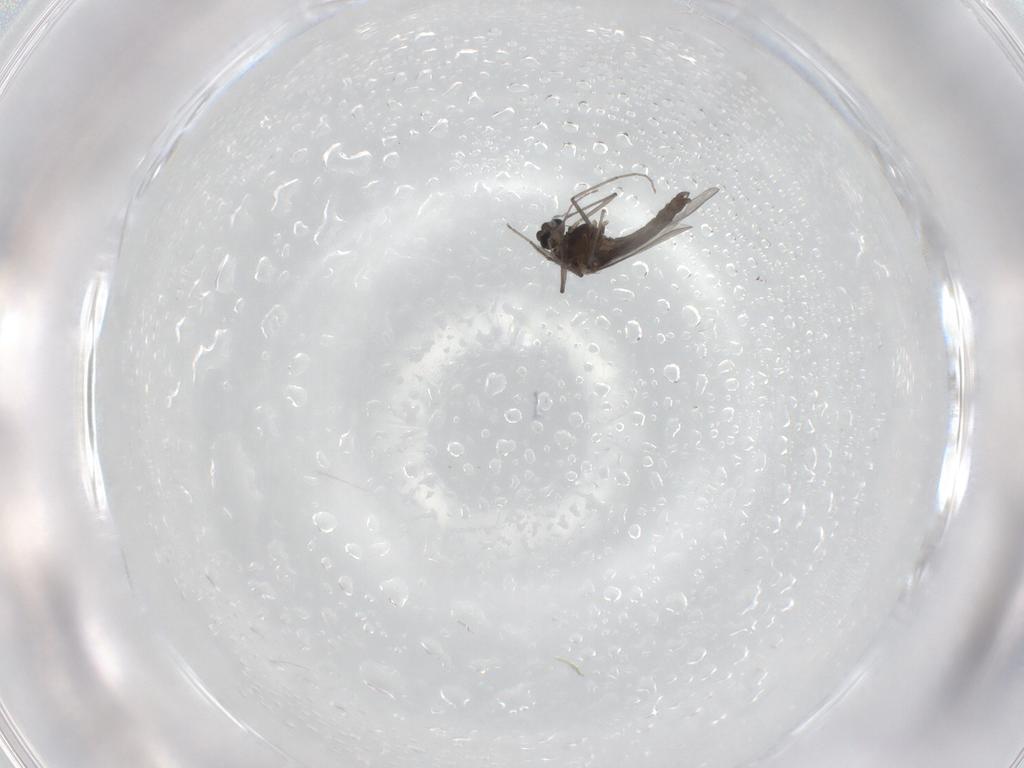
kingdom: Animalia
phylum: Arthropoda
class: Insecta
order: Diptera
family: Chironomidae
